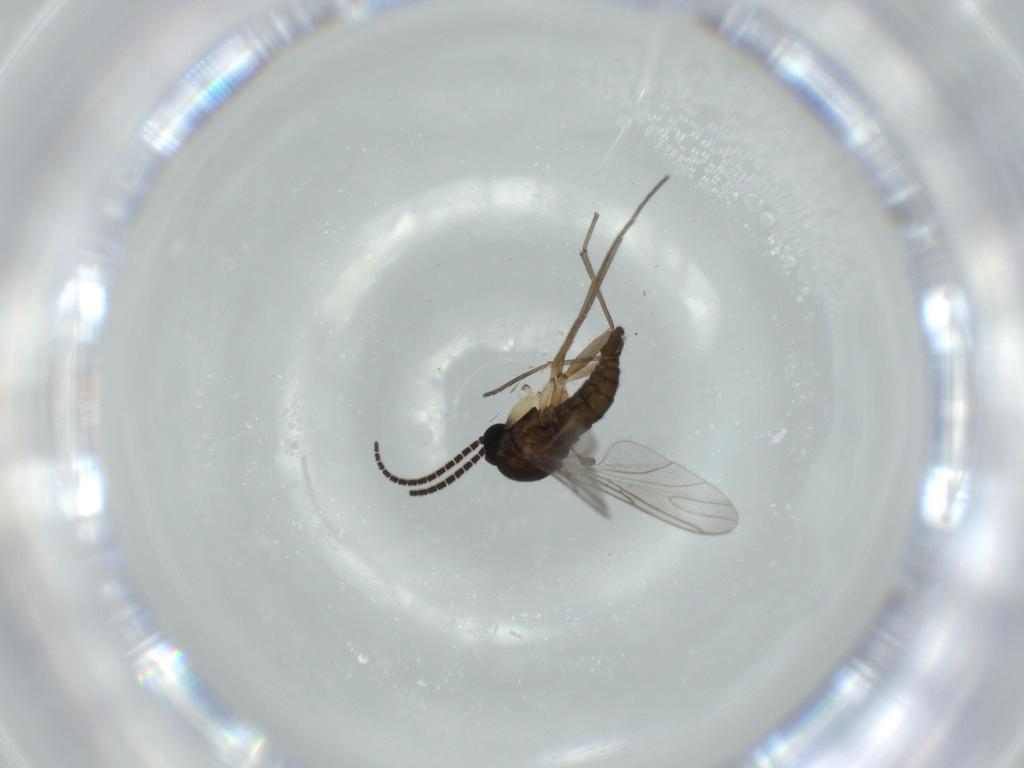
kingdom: Animalia
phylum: Arthropoda
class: Insecta
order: Diptera
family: Sciaridae
